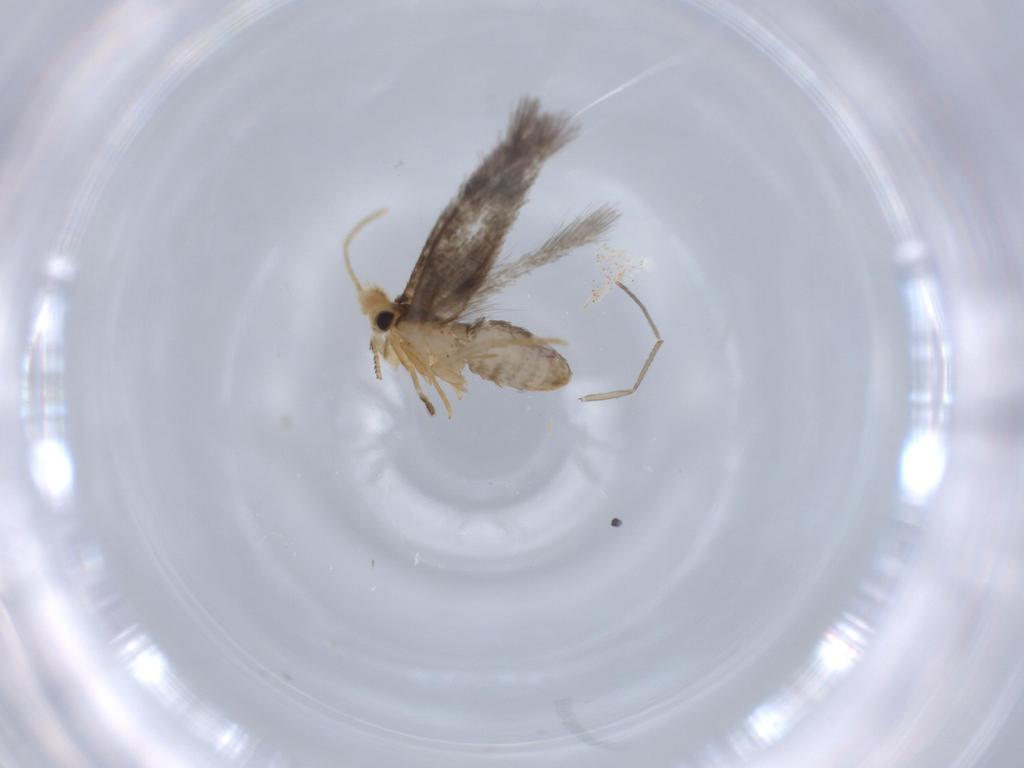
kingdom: Animalia
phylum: Arthropoda
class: Insecta
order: Lepidoptera
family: Nepticulidae
